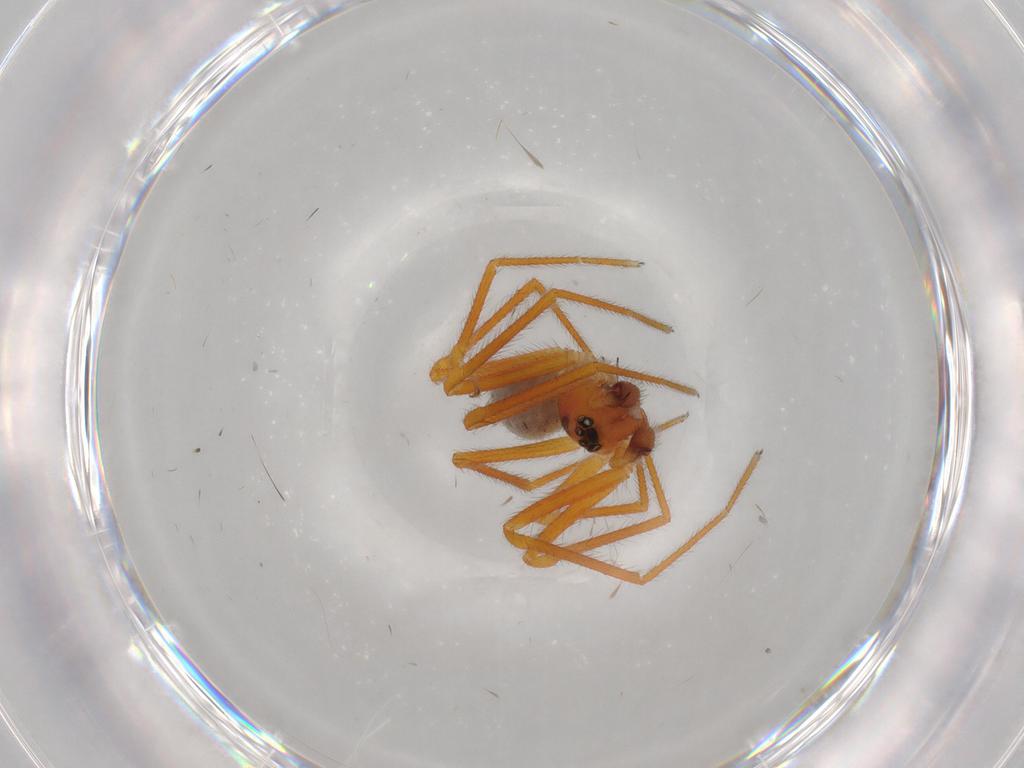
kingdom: Animalia
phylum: Arthropoda
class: Arachnida
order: Araneae
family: Linyphiidae
